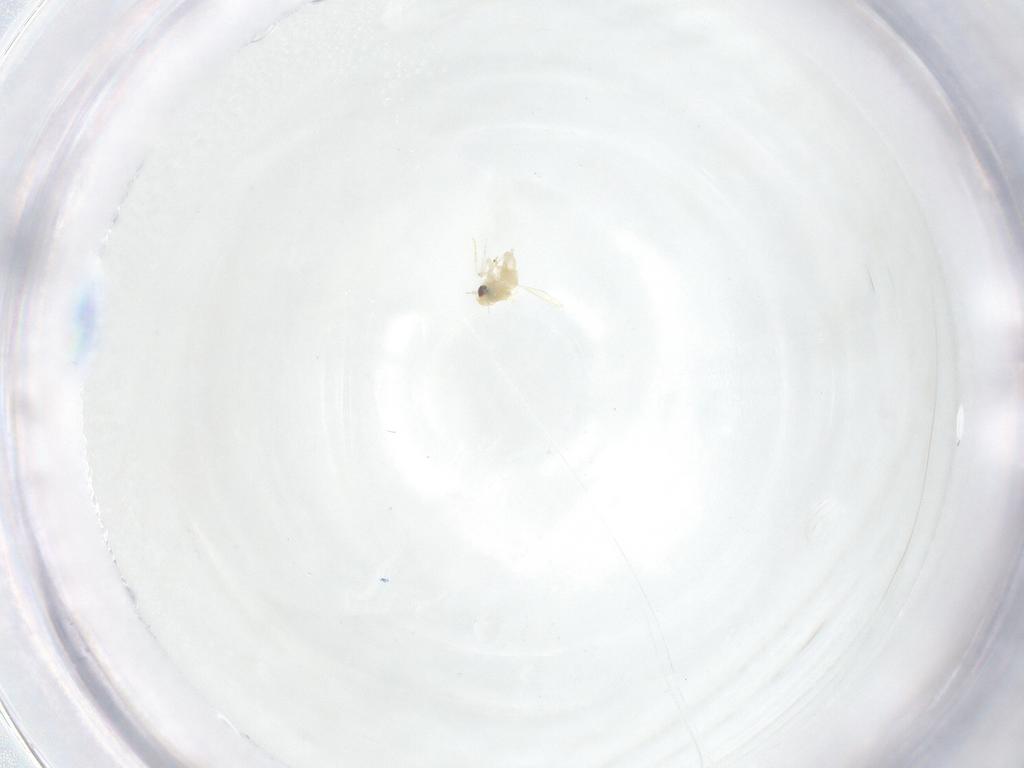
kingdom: Animalia
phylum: Arthropoda
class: Insecta
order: Hemiptera
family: Aleyrodidae
